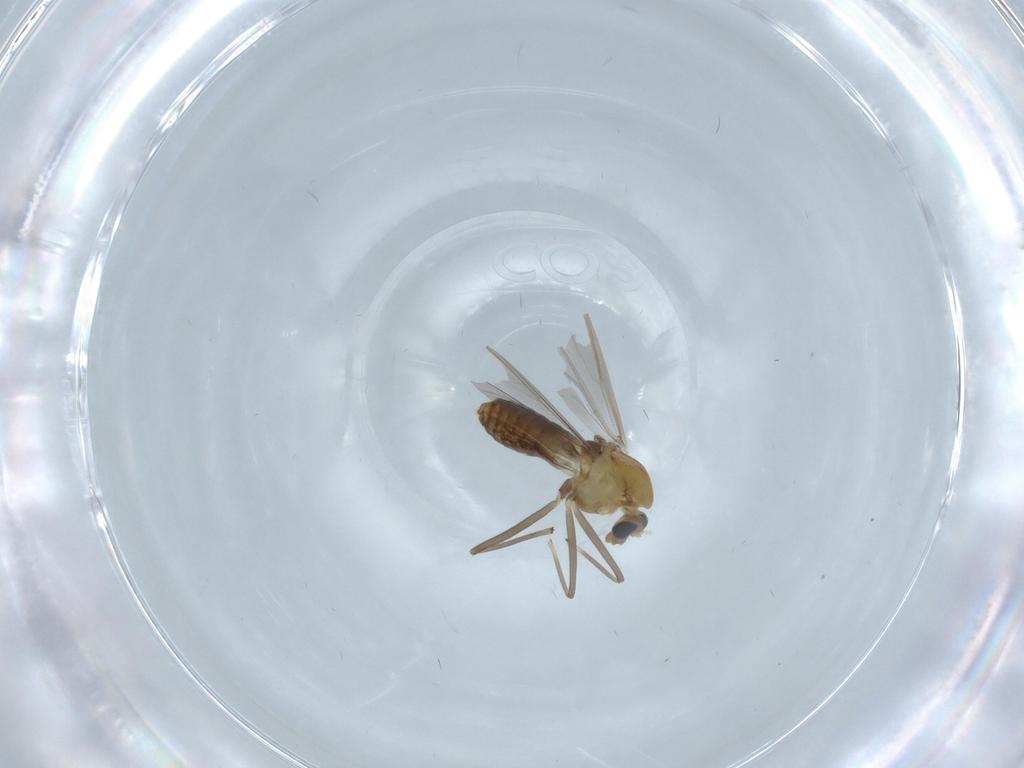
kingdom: Animalia
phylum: Arthropoda
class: Insecta
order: Diptera
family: Chironomidae
